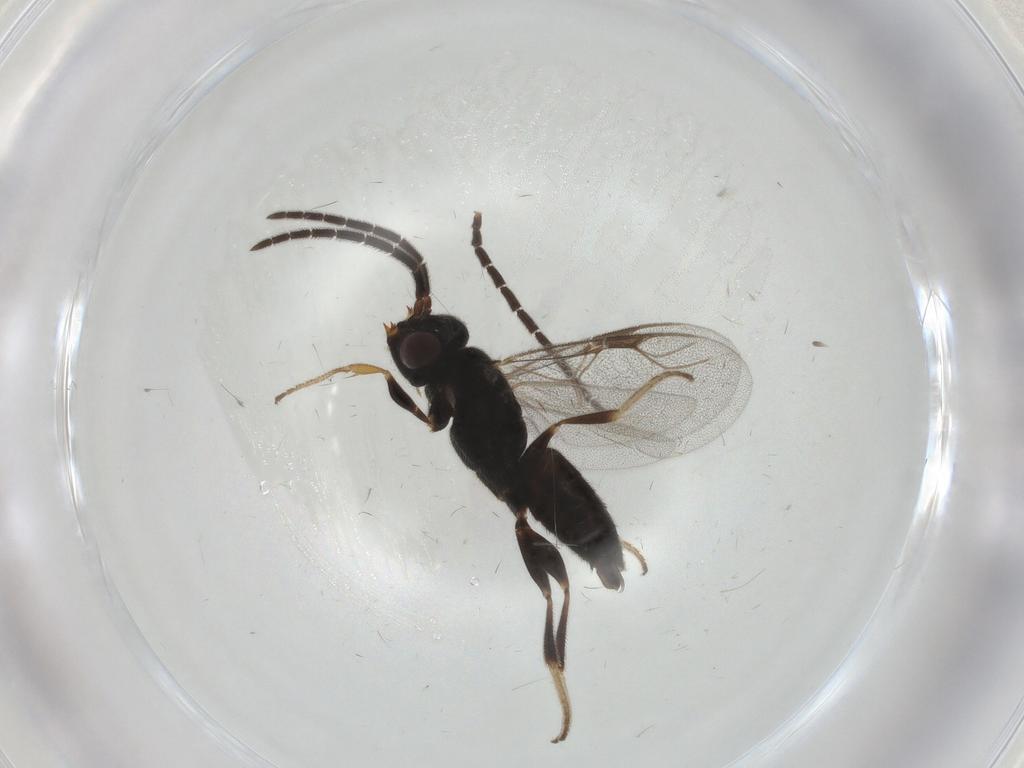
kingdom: Animalia
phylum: Arthropoda
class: Insecta
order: Hymenoptera
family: Dryinidae
